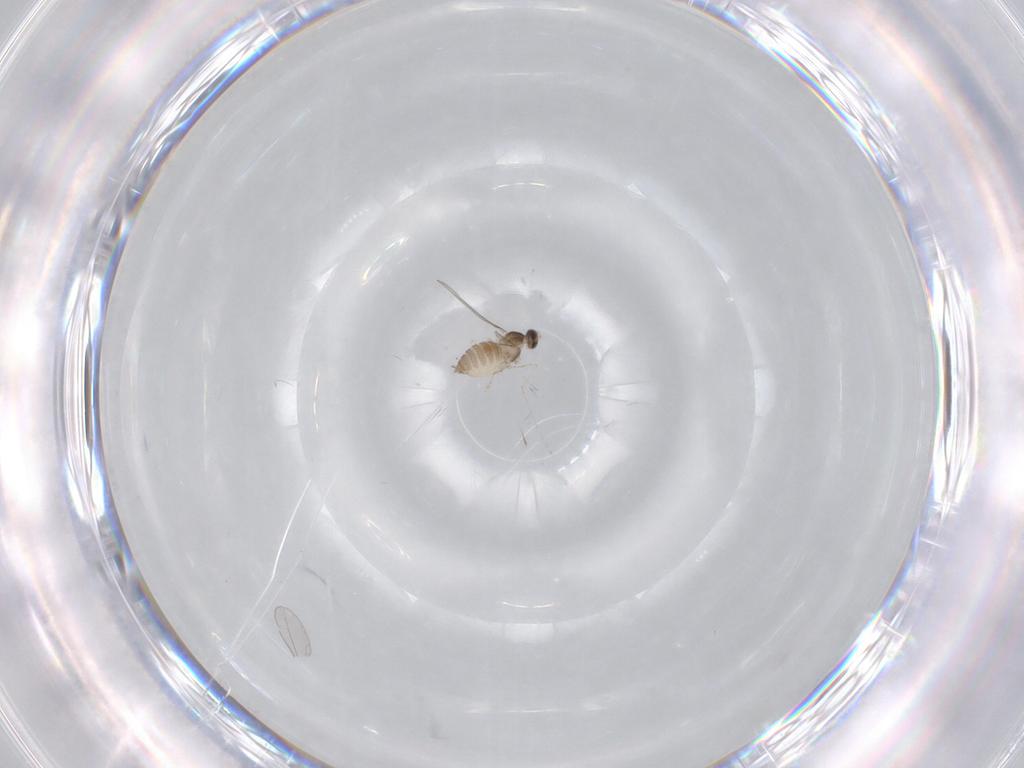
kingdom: Animalia
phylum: Arthropoda
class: Insecta
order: Diptera
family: Cecidomyiidae
